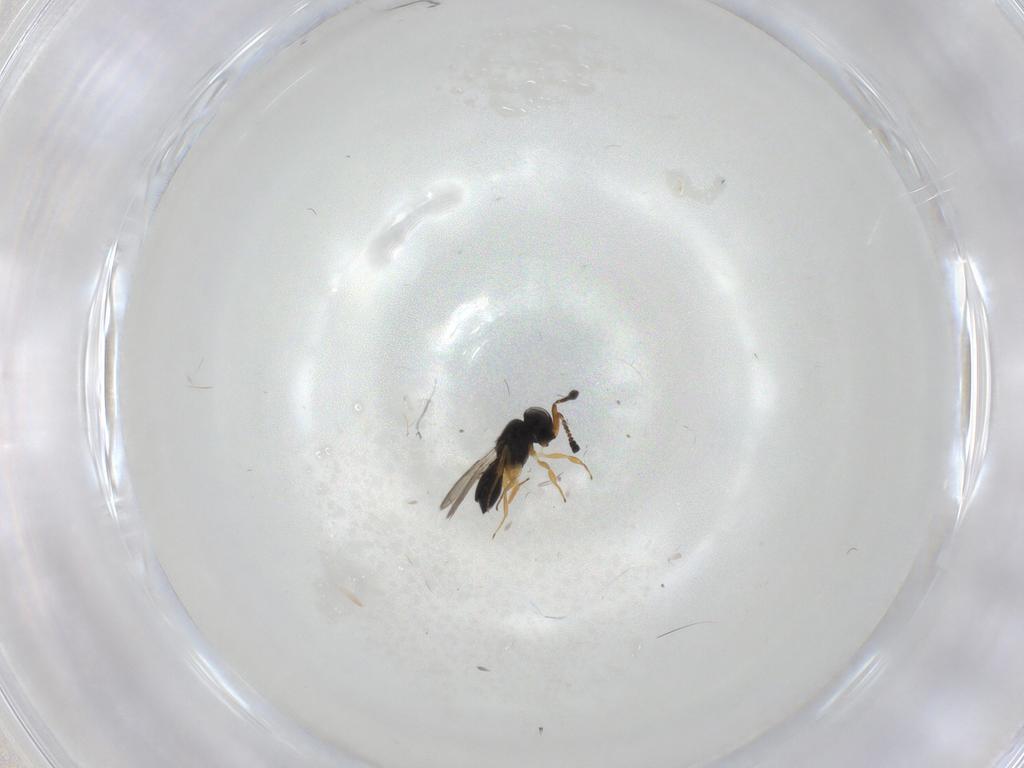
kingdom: Animalia
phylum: Arthropoda
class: Insecta
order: Hymenoptera
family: Scelionidae
